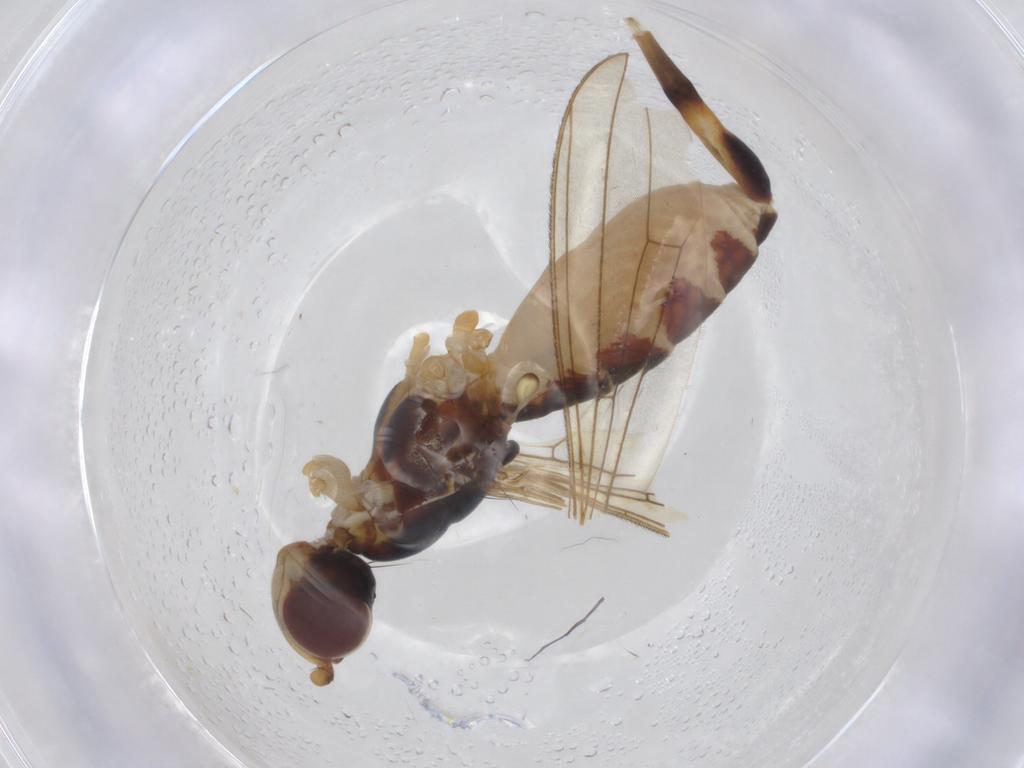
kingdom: Animalia
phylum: Arthropoda
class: Insecta
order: Diptera
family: Micropezidae
